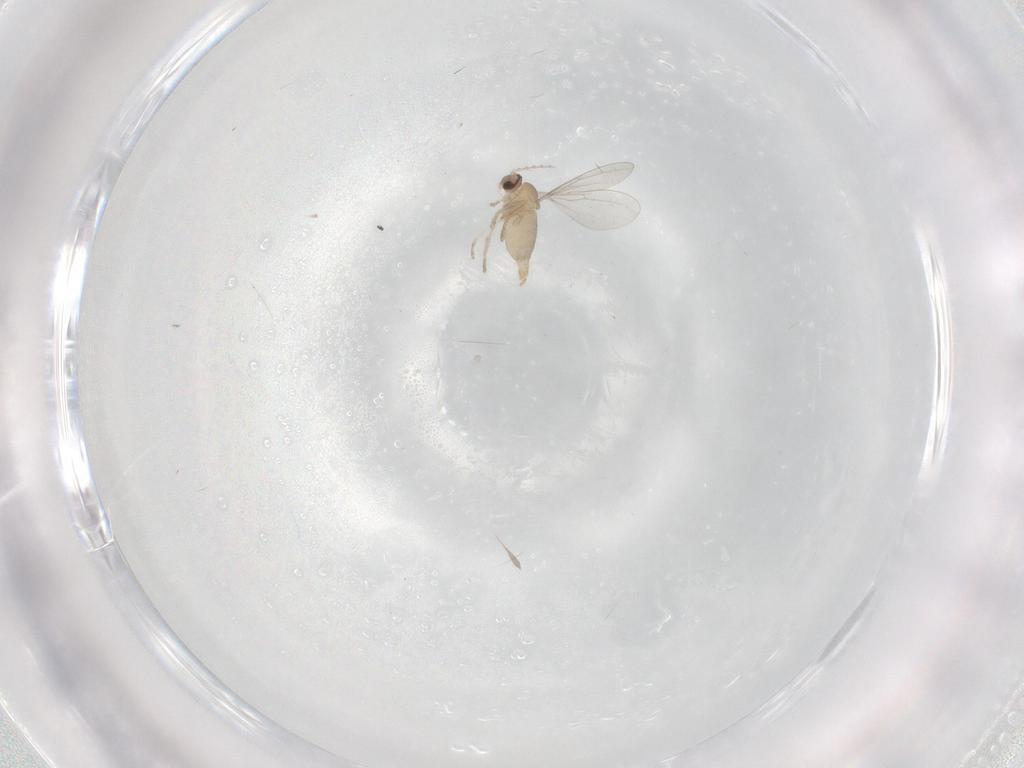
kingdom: Animalia
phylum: Arthropoda
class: Insecta
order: Diptera
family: Cecidomyiidae
